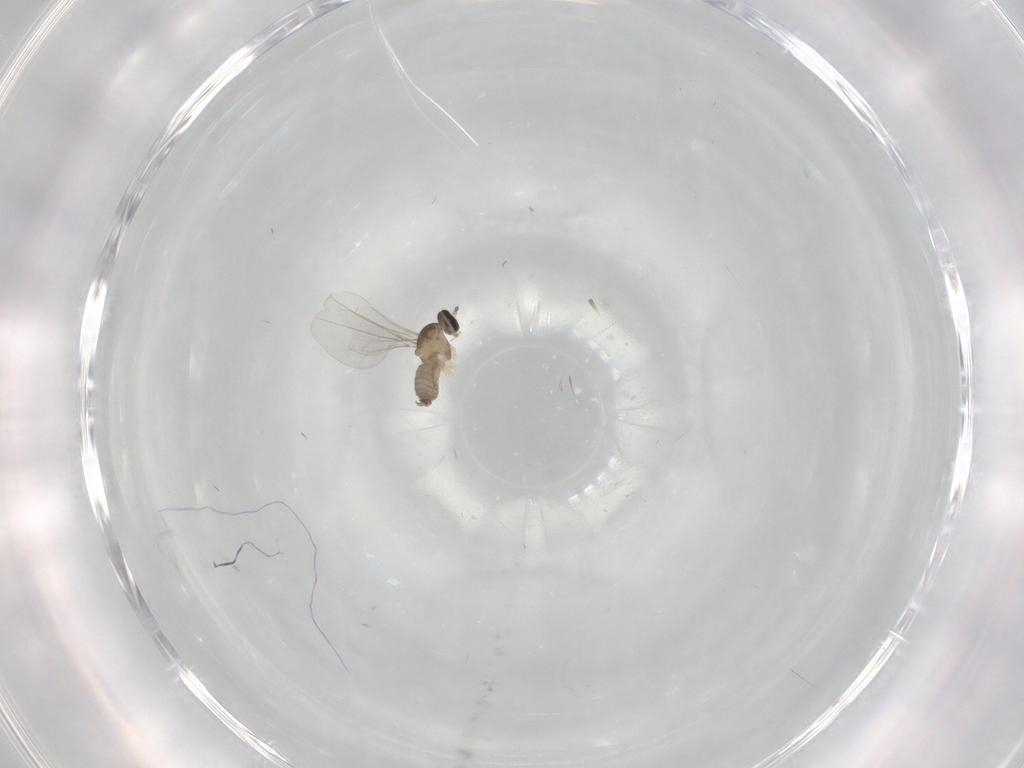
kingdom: Animalia
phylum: Arthropoda
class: Insecta
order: Diptera
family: Cecidomyiidae
